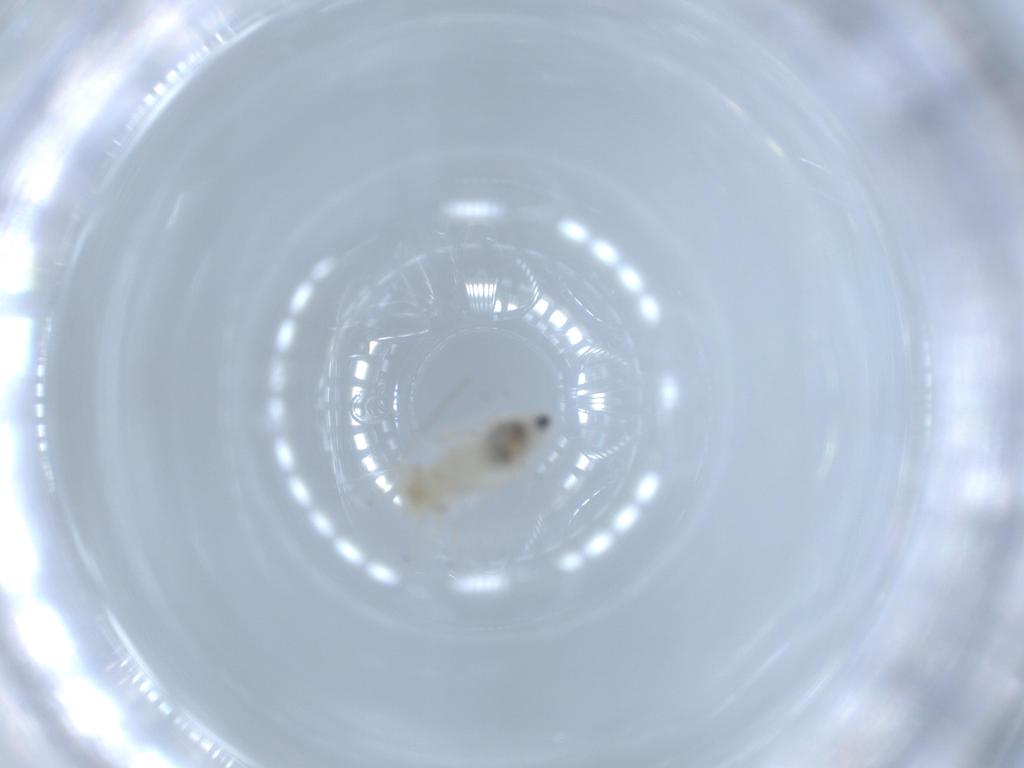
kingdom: Animalia
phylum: Arthropoda
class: Insecta
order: Psocodea
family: Caeciliusidae
